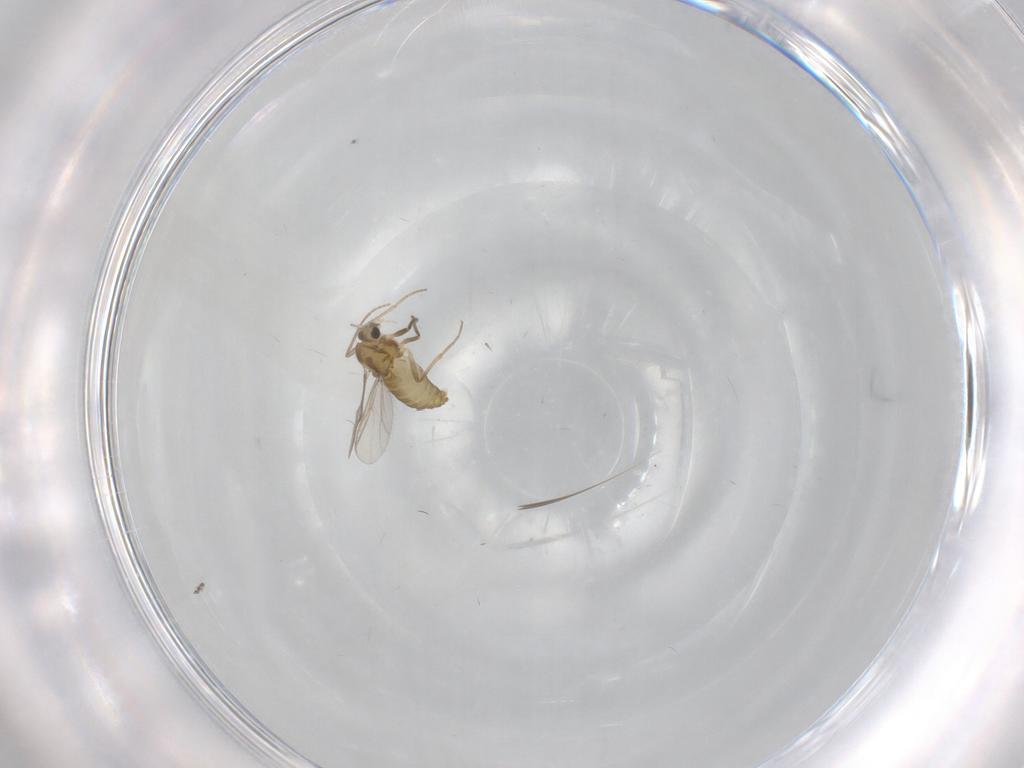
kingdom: Animalia
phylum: Arthropoda
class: Insecta
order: Diptera
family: Chironomidae
